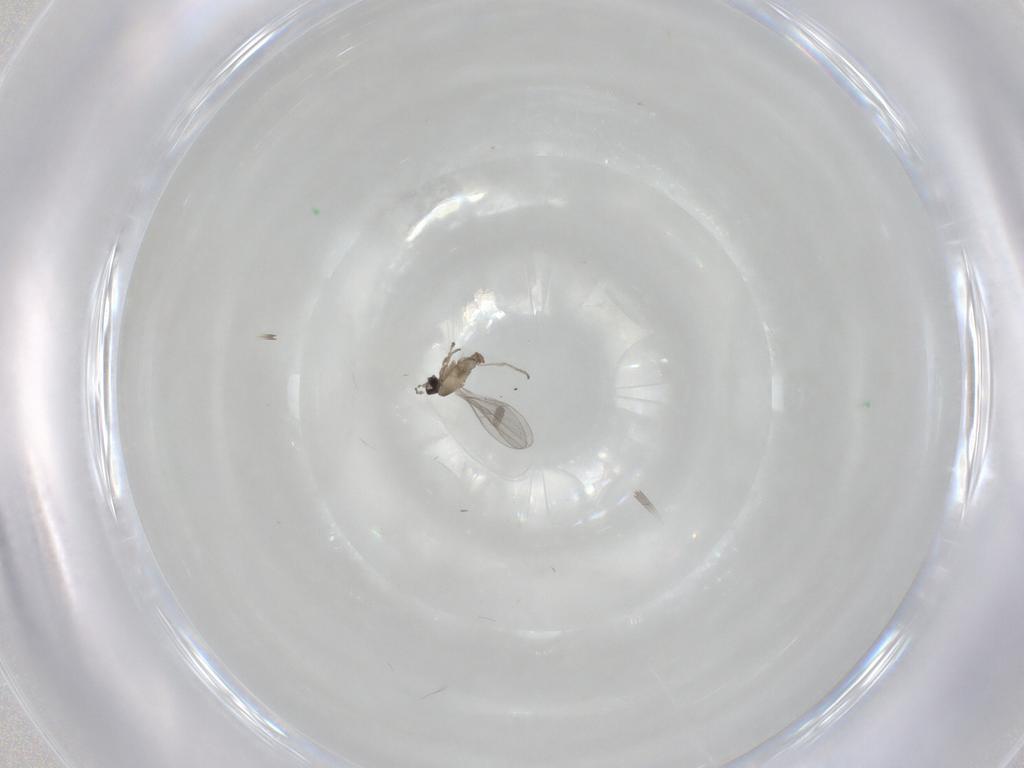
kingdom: Animalia
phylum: Arthropoda
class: Insecta
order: Diptera
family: Cecidomyiidae
